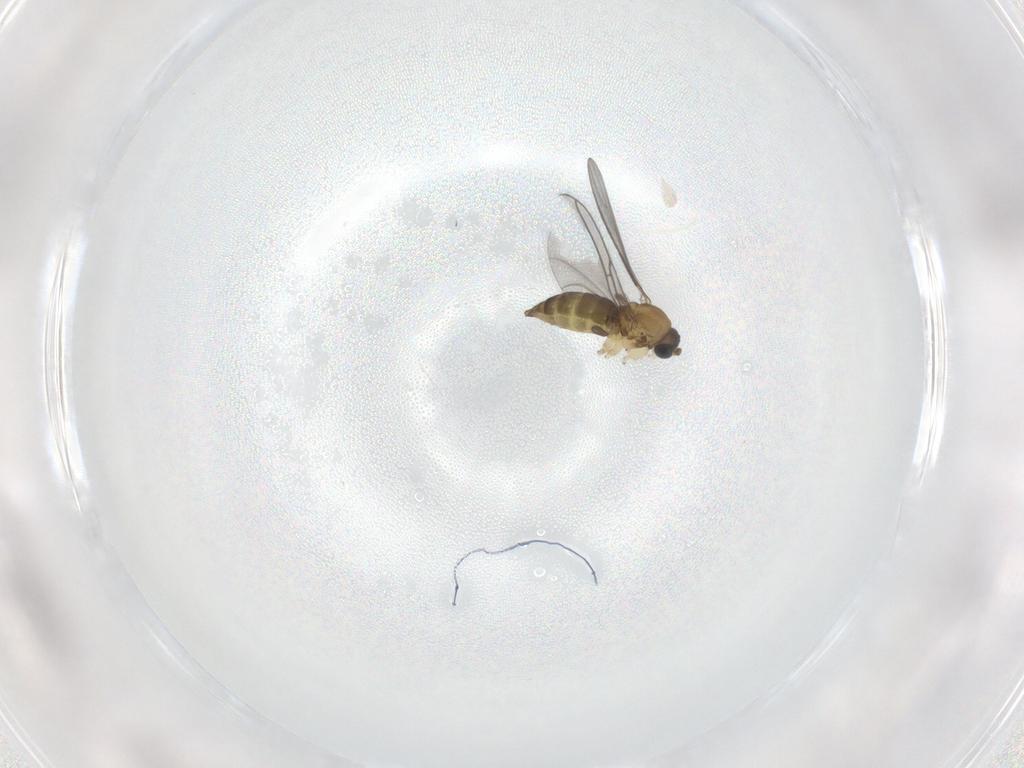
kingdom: Animalia
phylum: Arthropoda
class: Insecta
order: Diptera
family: Sciaridae
